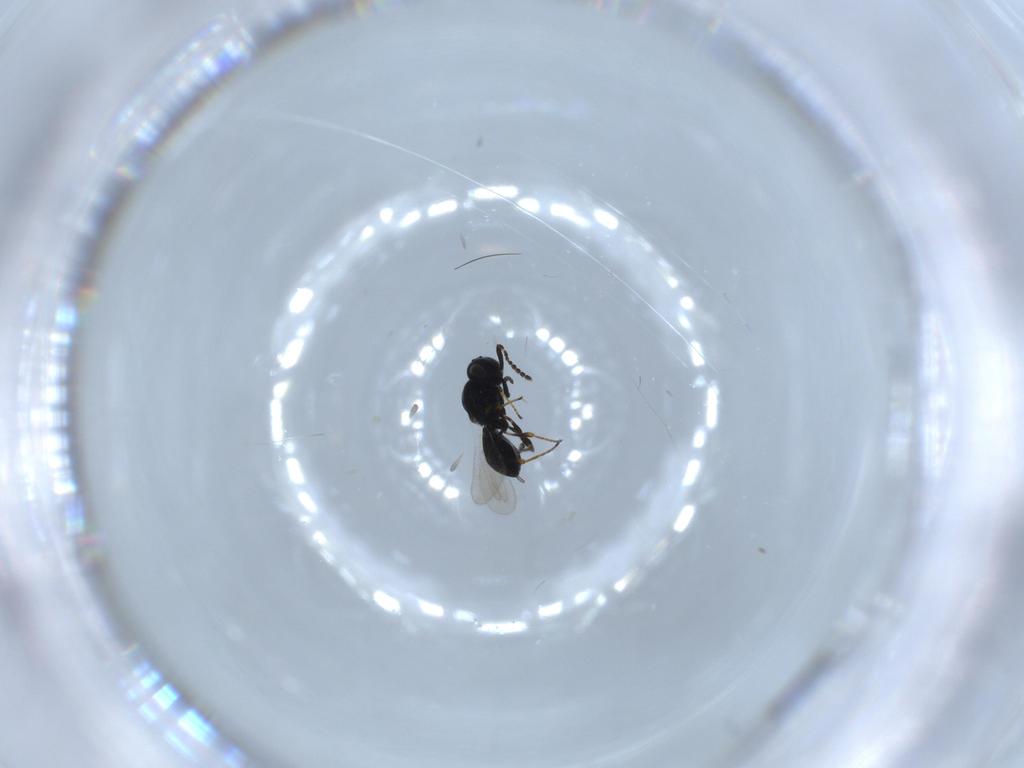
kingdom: Animalia
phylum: Arthropoda
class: Insecta
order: Hymenoptera
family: Platygastridae
